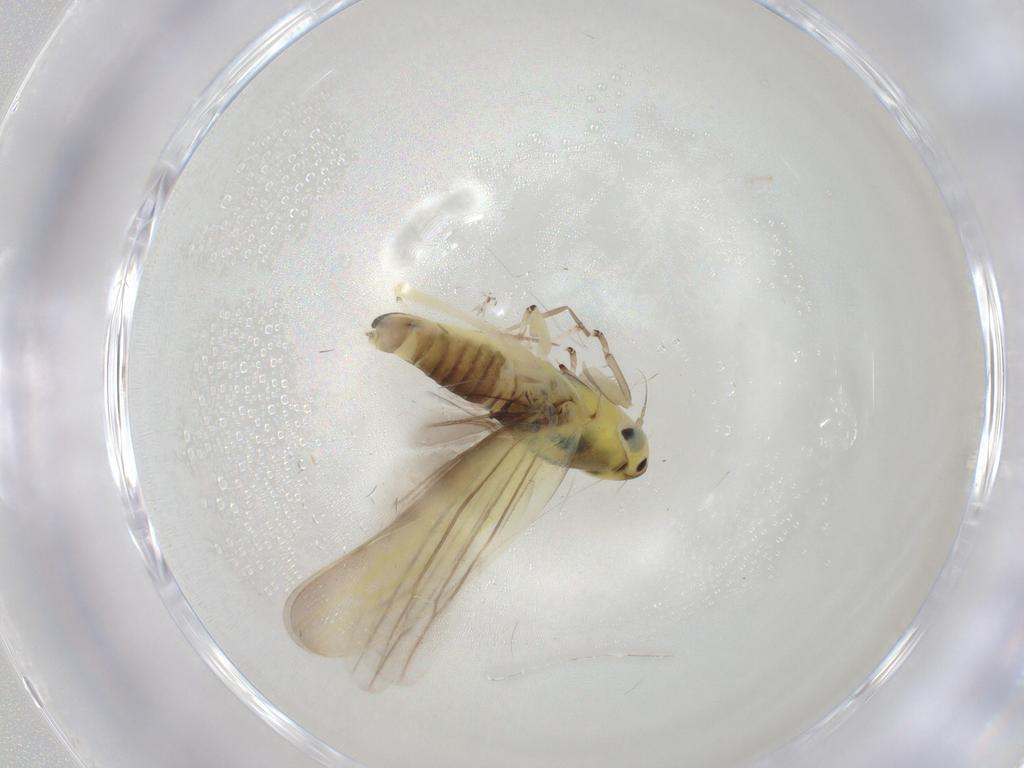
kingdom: Animalia
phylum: Arthropoda
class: Insecta
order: Hemiptera
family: Cicadellidae
